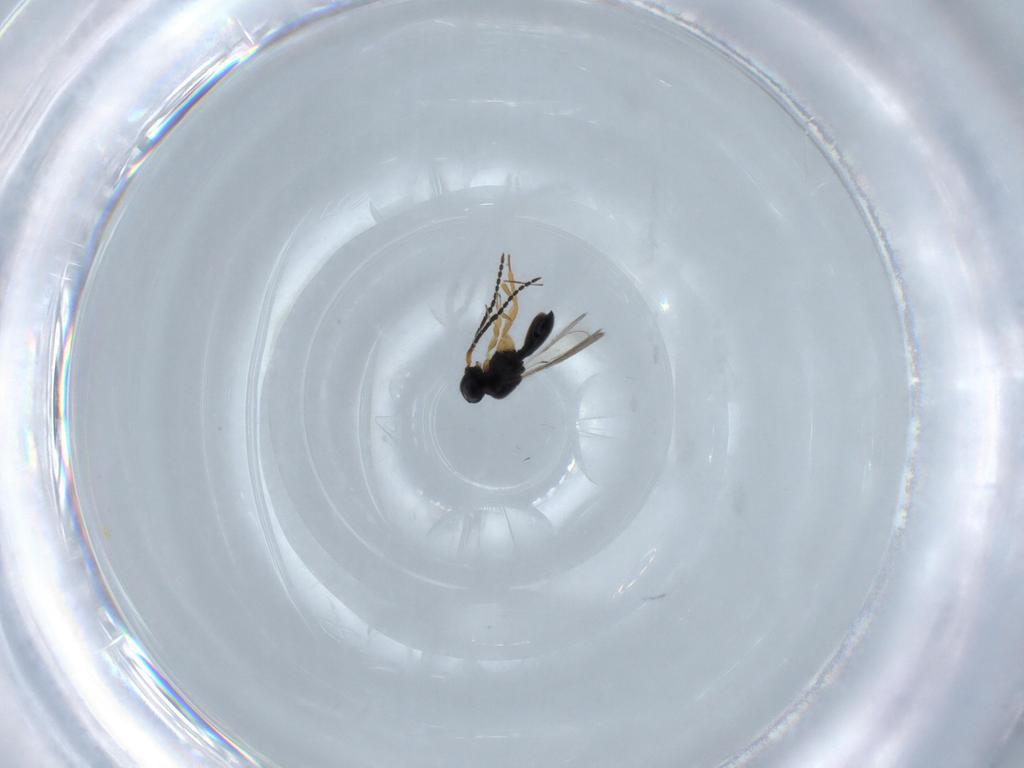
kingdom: Animalia
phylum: Arthropoda
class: Insecta
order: Hymenoptera
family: Scelionidae
